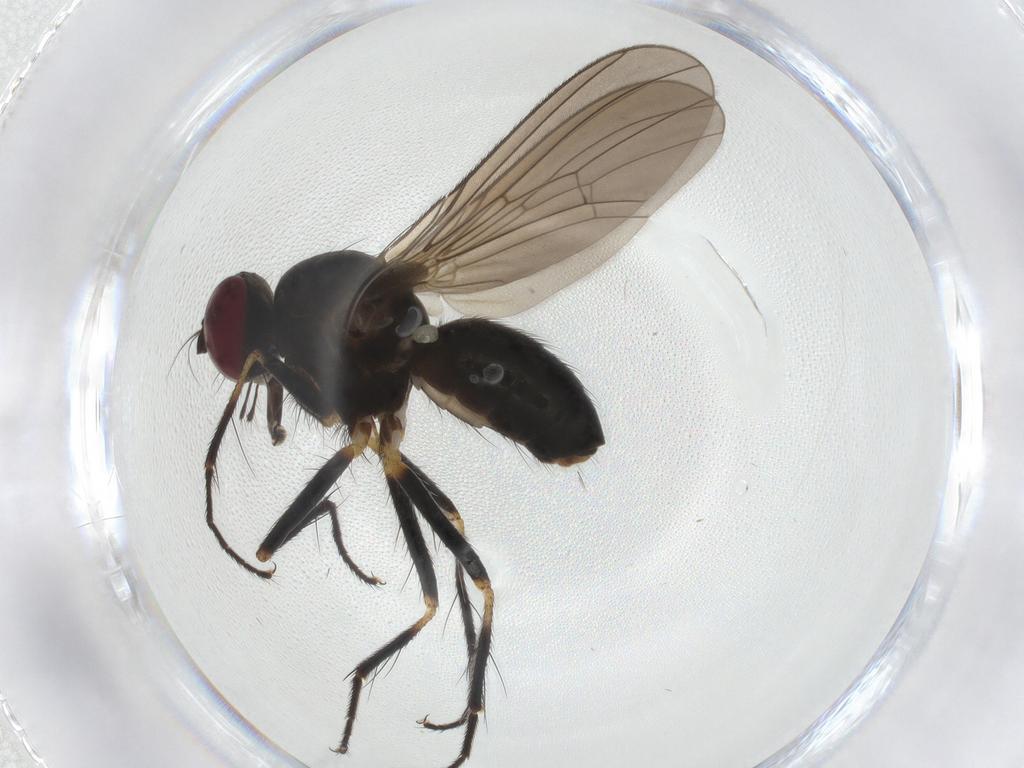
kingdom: Animalia
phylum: Arthropoda
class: Insecta
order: Diptera
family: Anthomyiidae
